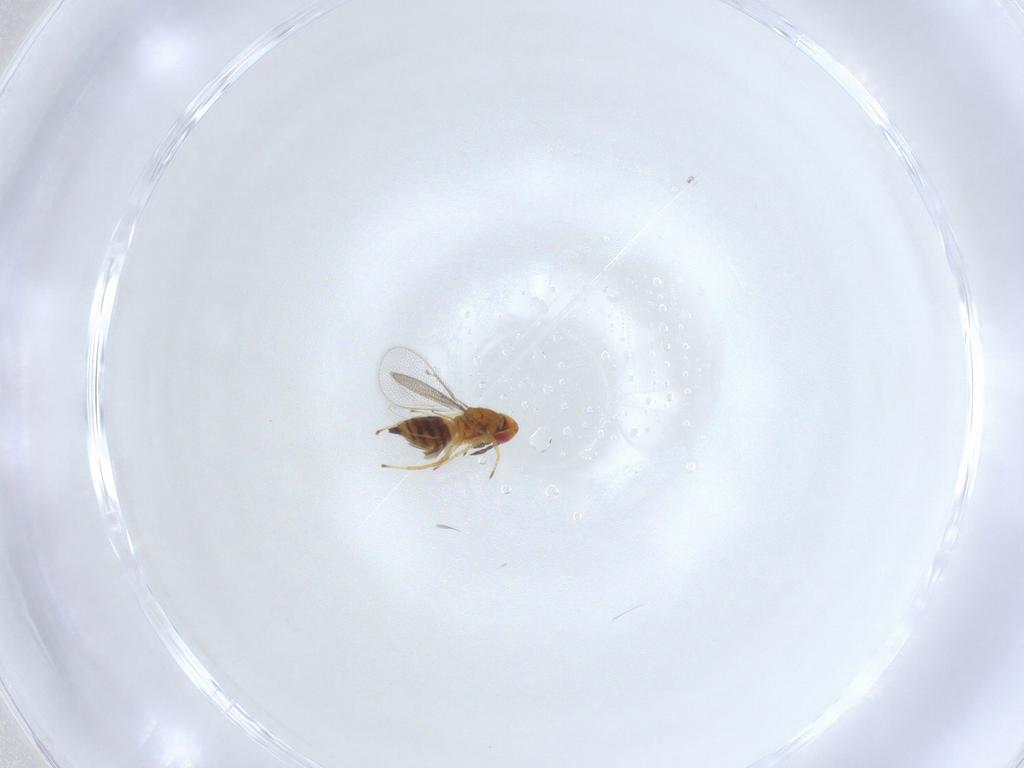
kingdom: Animalia
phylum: Arthropoda
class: Insecta
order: Hymenoptera
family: Eulophidae
